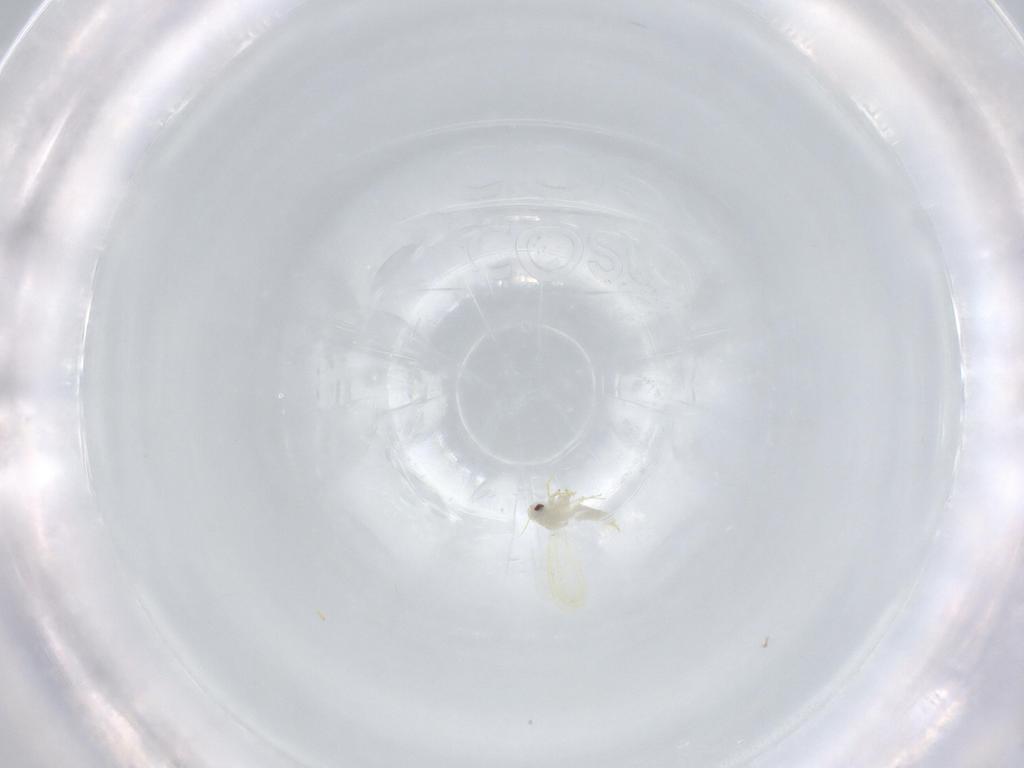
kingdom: Animalia
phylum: Arthropoda
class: Insecta
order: Hemiptera
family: Aleyrodidae
